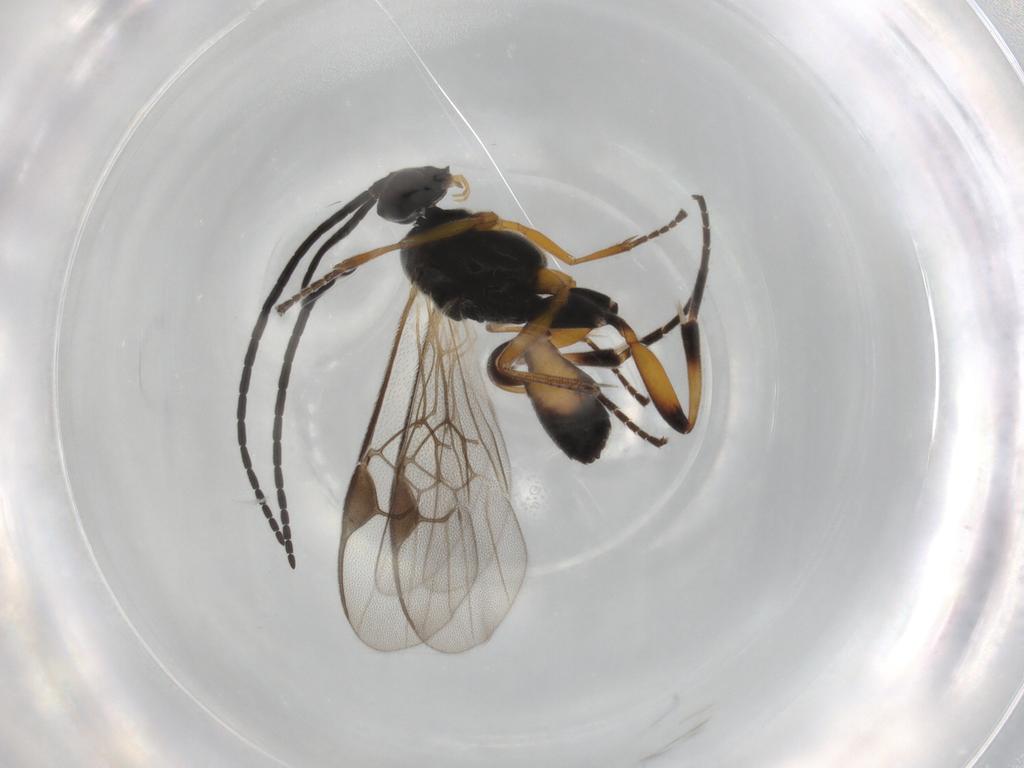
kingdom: Animalia
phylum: Arthropoda
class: Insecta
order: Hymenoptera
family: Braconidae
